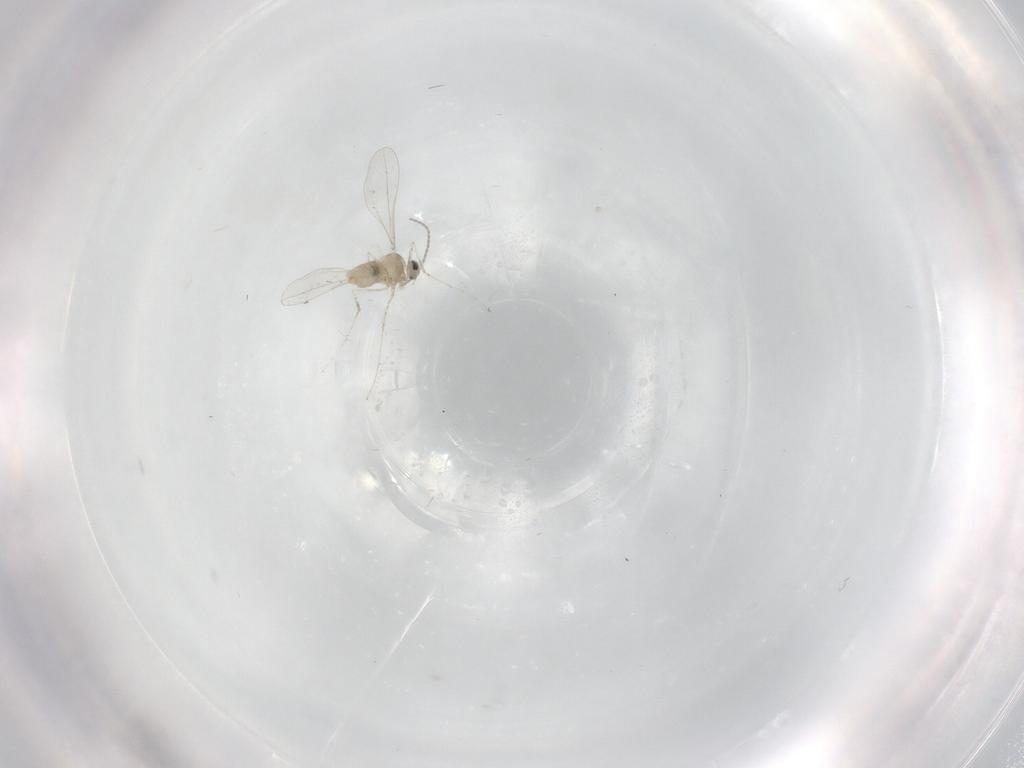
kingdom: Animalia
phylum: Arthropoda
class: Insecta
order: Diptera
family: Cecidomyiidae
